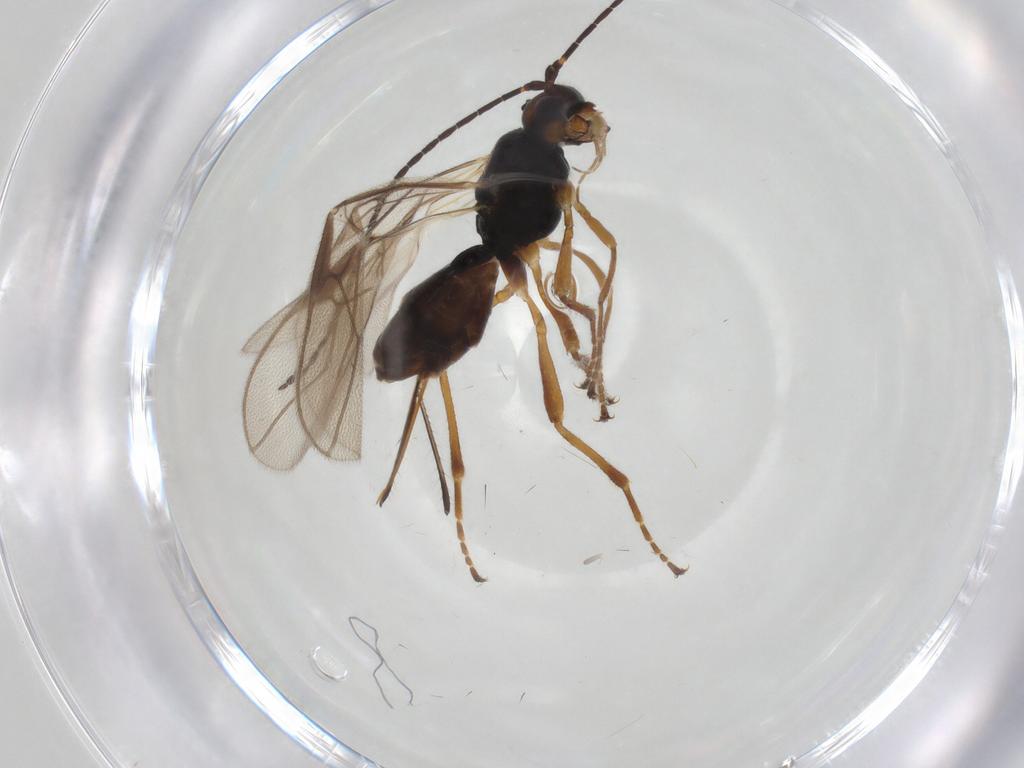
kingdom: Animalia
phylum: Arthropoda
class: Insecta
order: Hymenoptera
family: Braconidae
